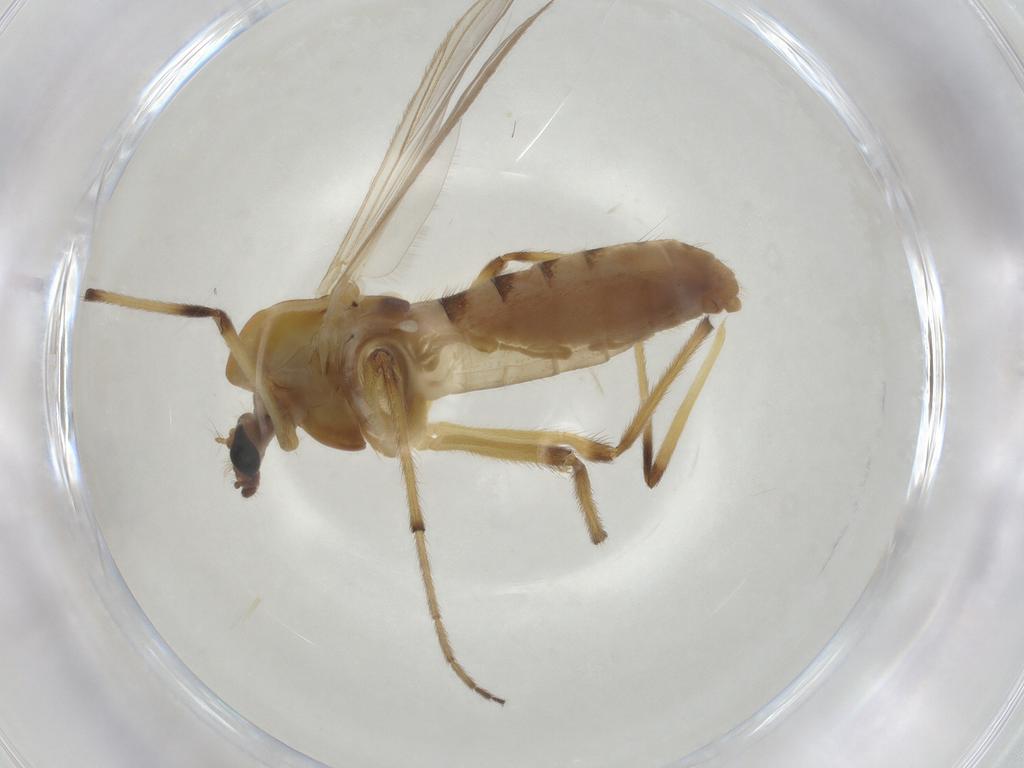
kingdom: Animalia
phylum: Arthropoda
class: Insecta
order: Diptera
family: Chironomidae
